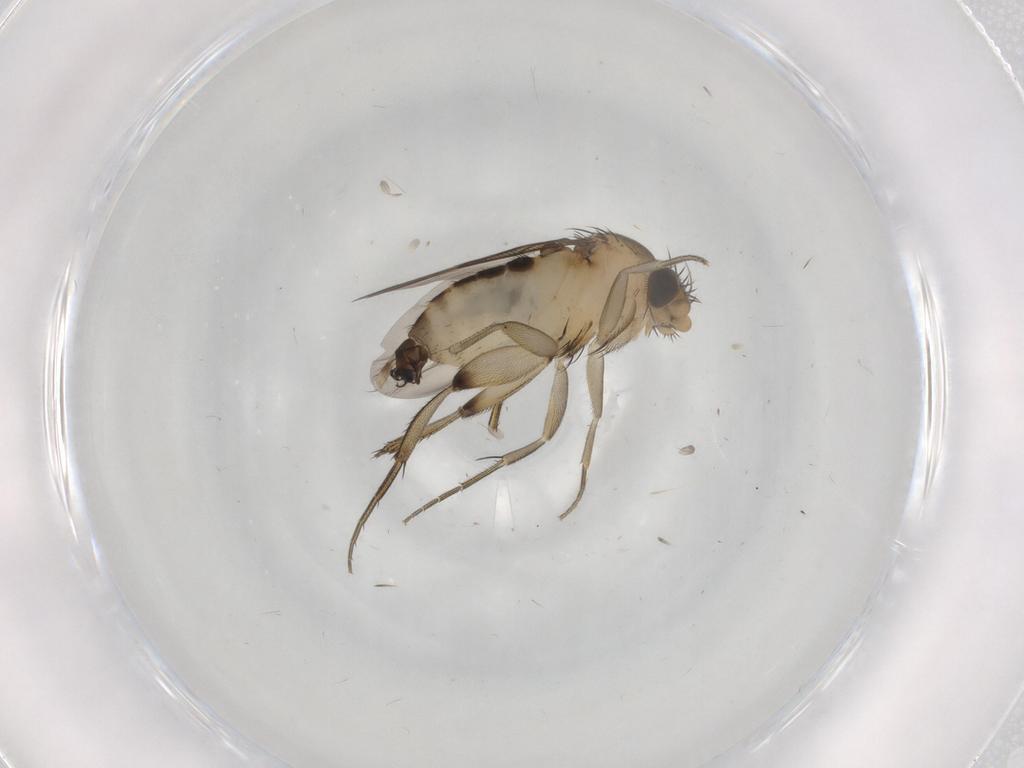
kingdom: Animalia
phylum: Arthropoda
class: Insecta
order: Diptera
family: Phoridae
